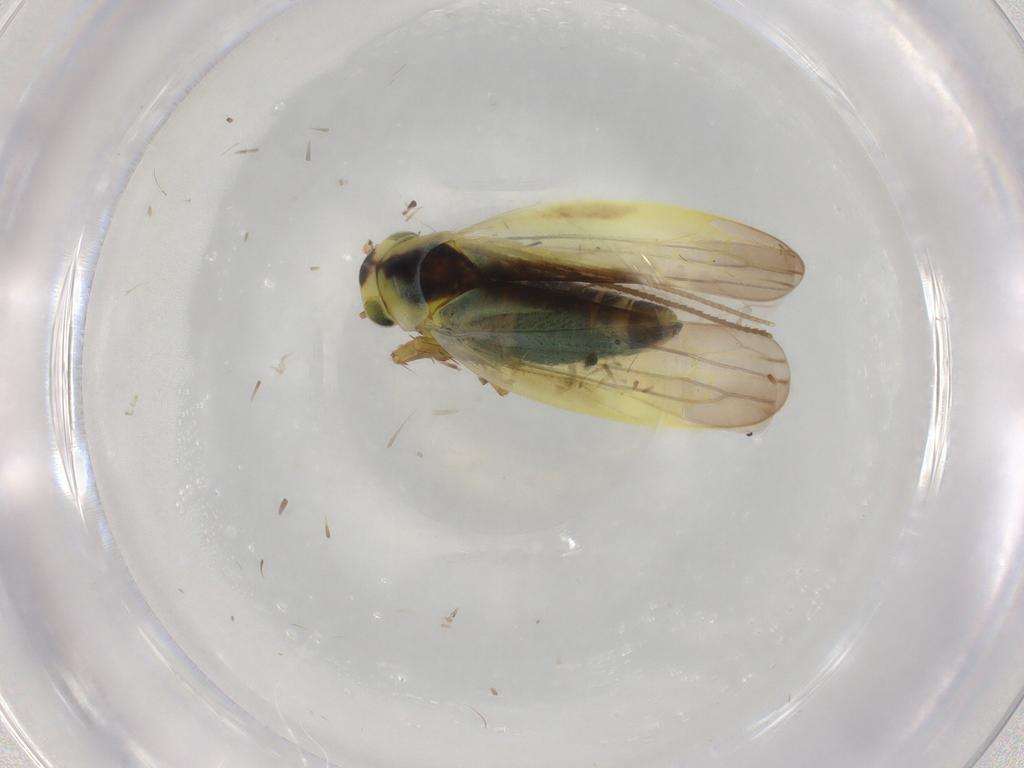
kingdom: Animalia
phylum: Arthropoda
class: Insecta
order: Hemiptera
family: Cicadellidae
